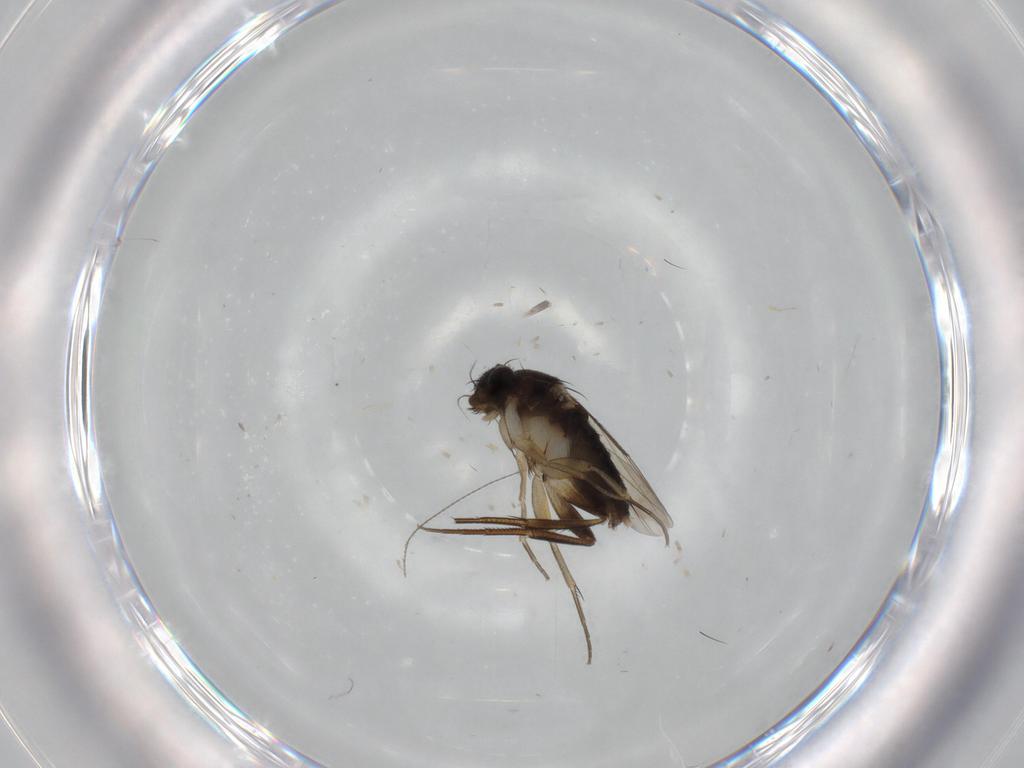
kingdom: Animalia
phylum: Arthropoda
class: Insecta
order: Diptera
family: Phoridae
